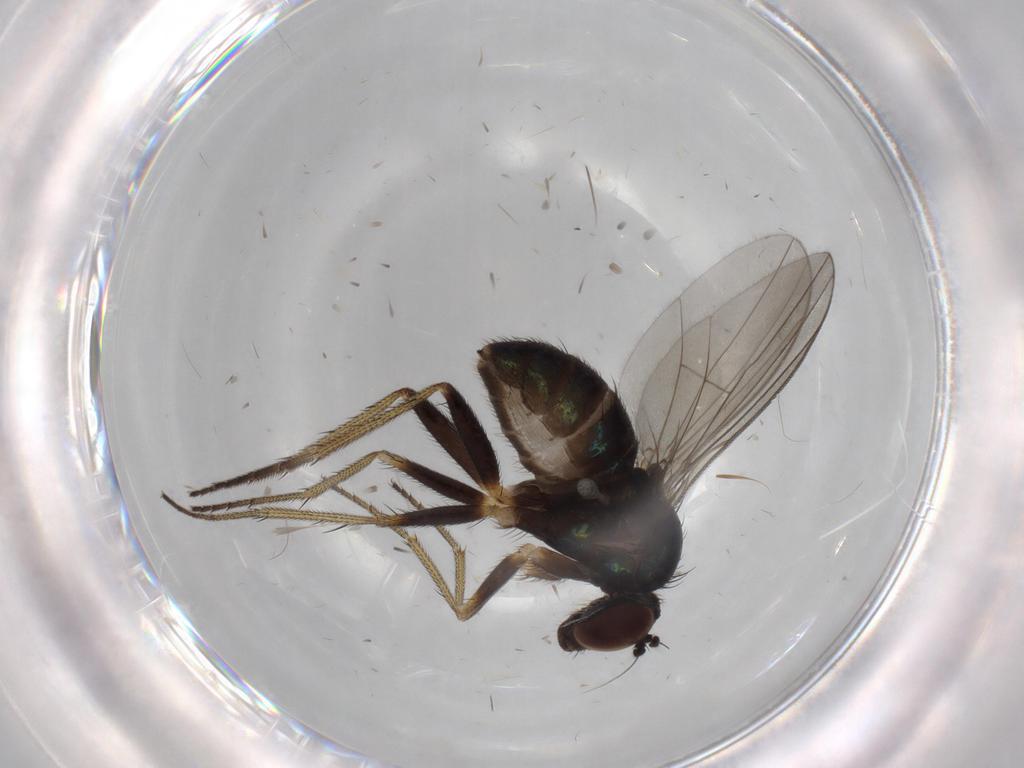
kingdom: Animalia
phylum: Arthropoda
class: Insecta
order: Diptera
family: Dolichopodidae
